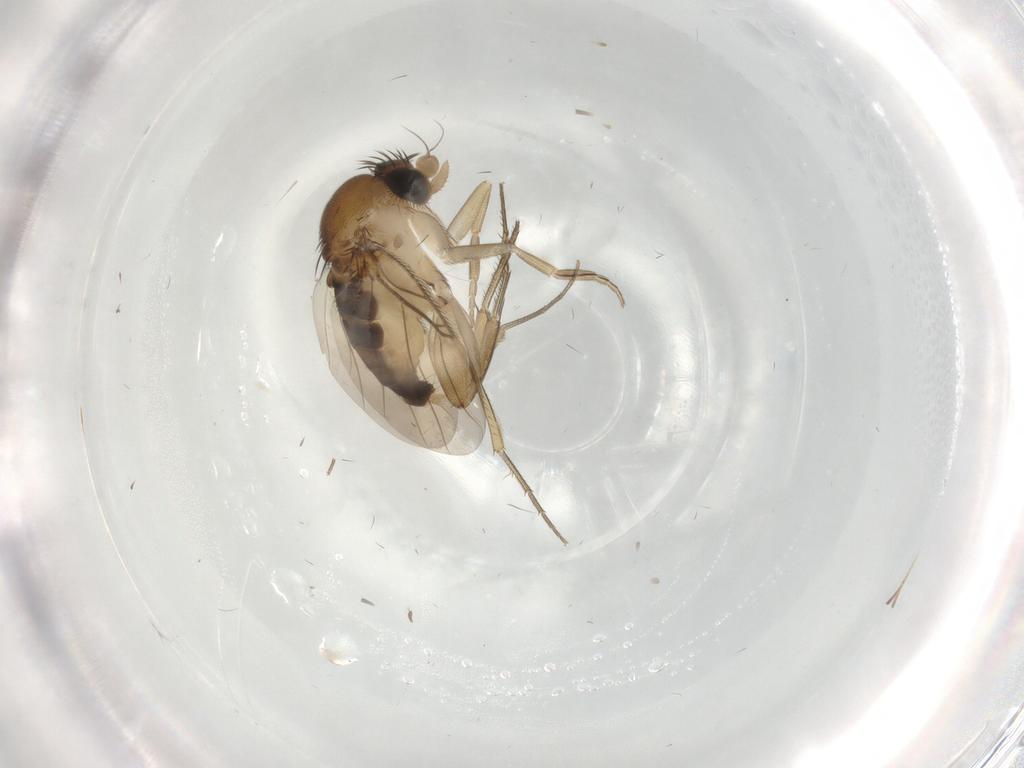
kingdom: Animalia
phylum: Arthropoda
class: Insecta
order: Diptera
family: Phoridae
